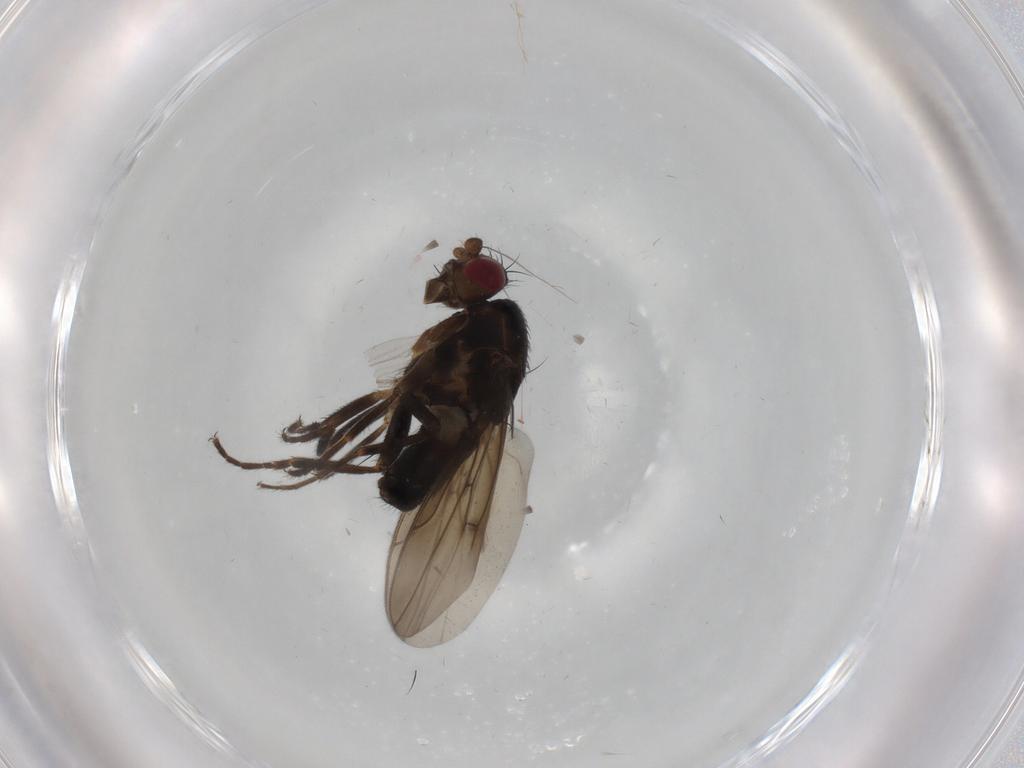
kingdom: Animalia
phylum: Arthropoda
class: Insecta
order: Diptera
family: Sphaeroceridae
